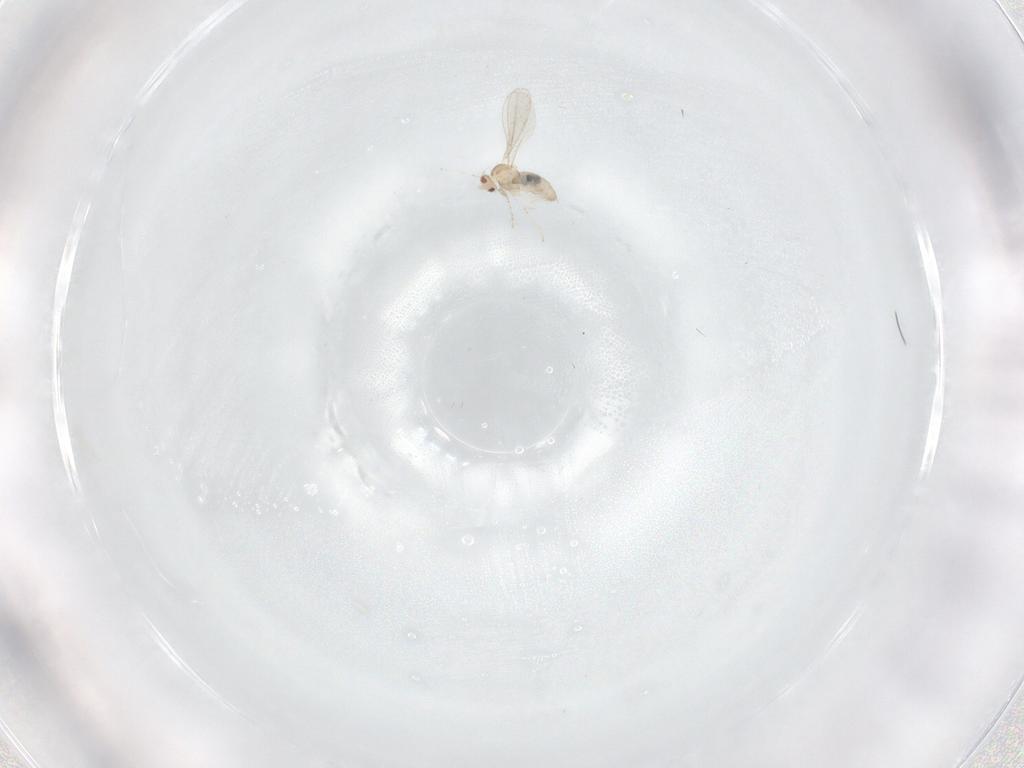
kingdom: Animalia
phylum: Arthropoda
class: Insecta
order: Diptera
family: Cecidomyiidae
